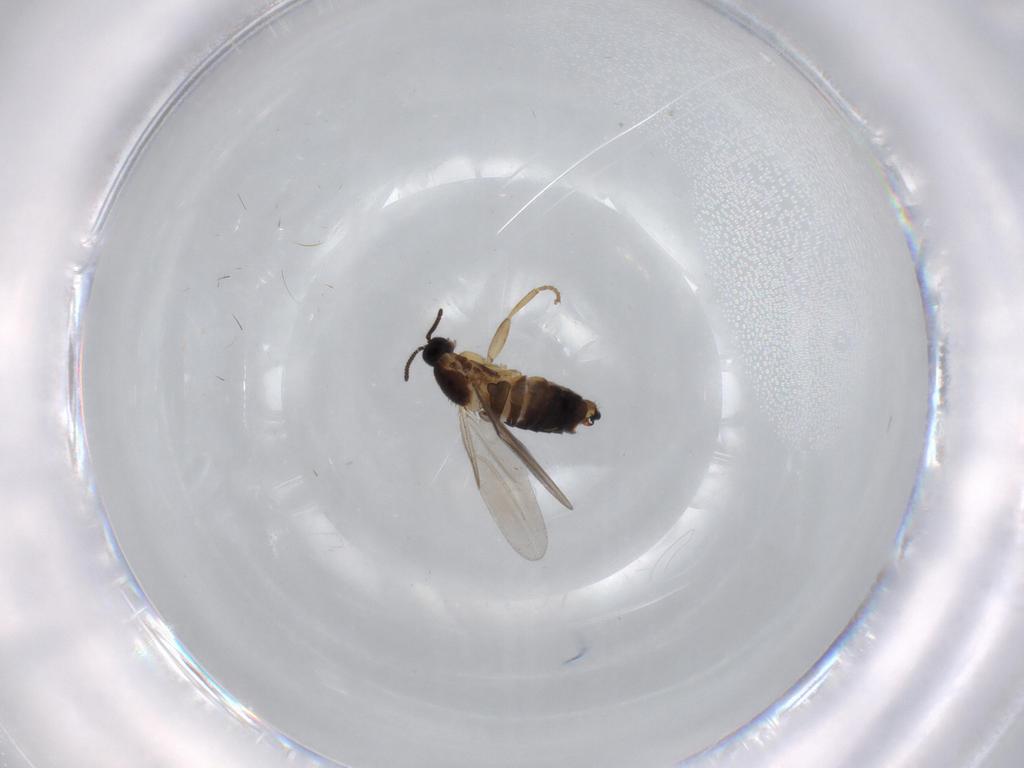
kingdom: Animalia
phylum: Arthropoda
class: Insecta
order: Diptera
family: Scatopsidae
